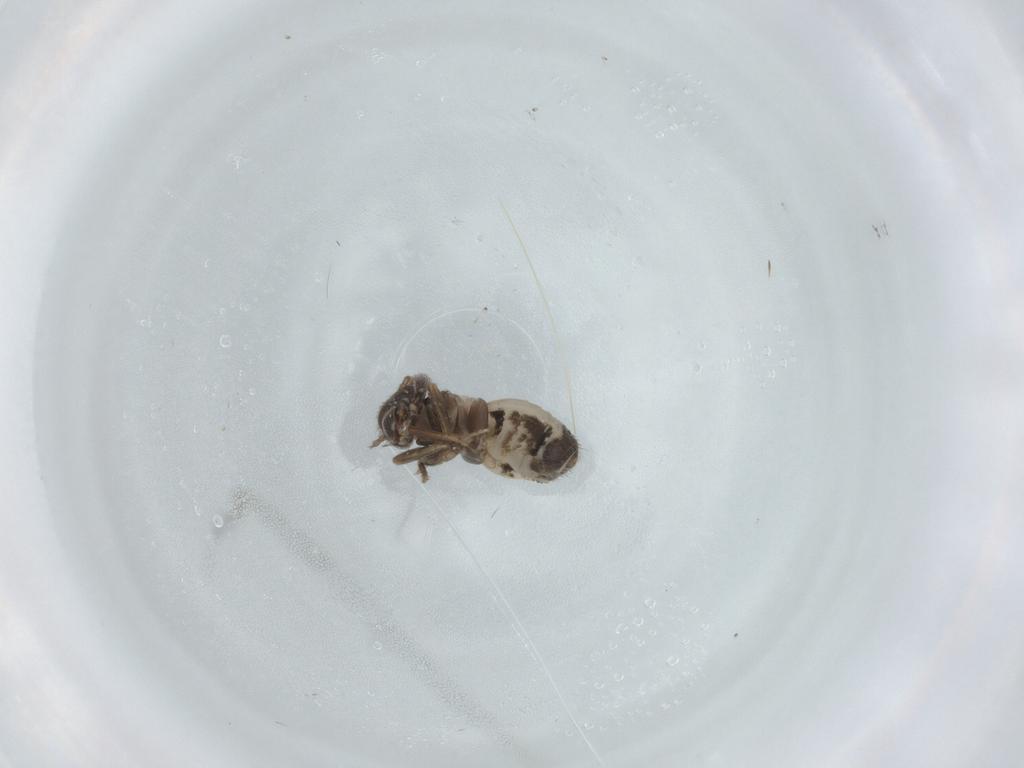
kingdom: Animalia
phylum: Arthropoda
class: Insecta
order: Psocodea
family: Lepidopsocidae
